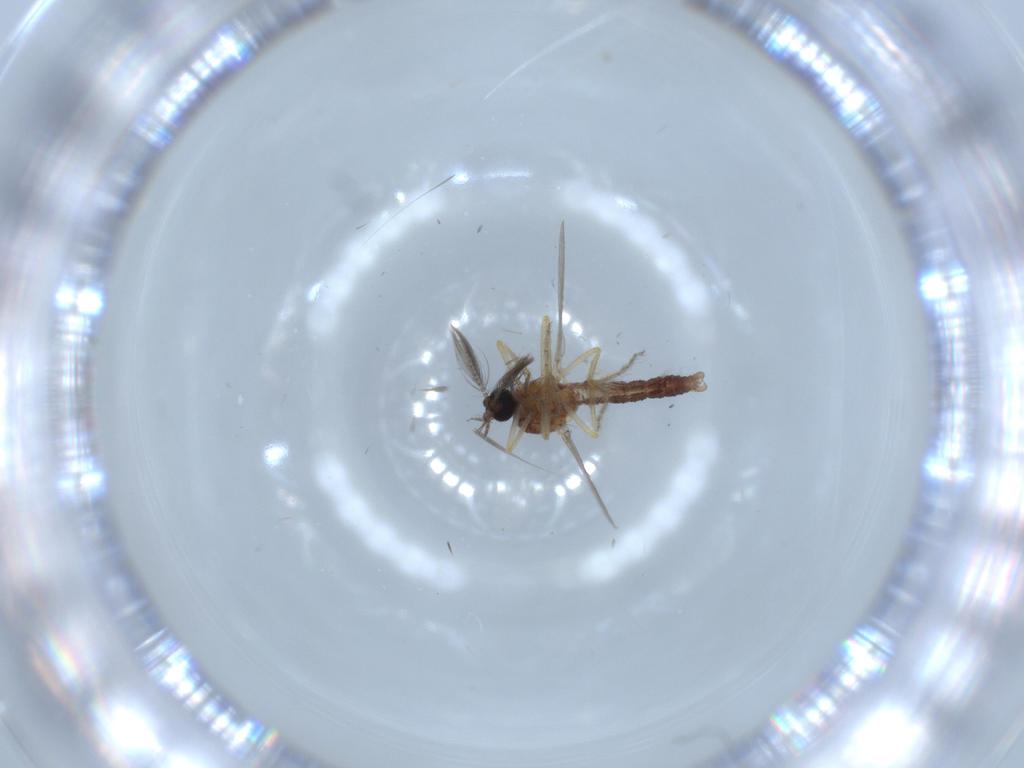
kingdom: Animalia
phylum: Arthropoda
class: Insecta
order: Diptera
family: Ceratopogonidae
